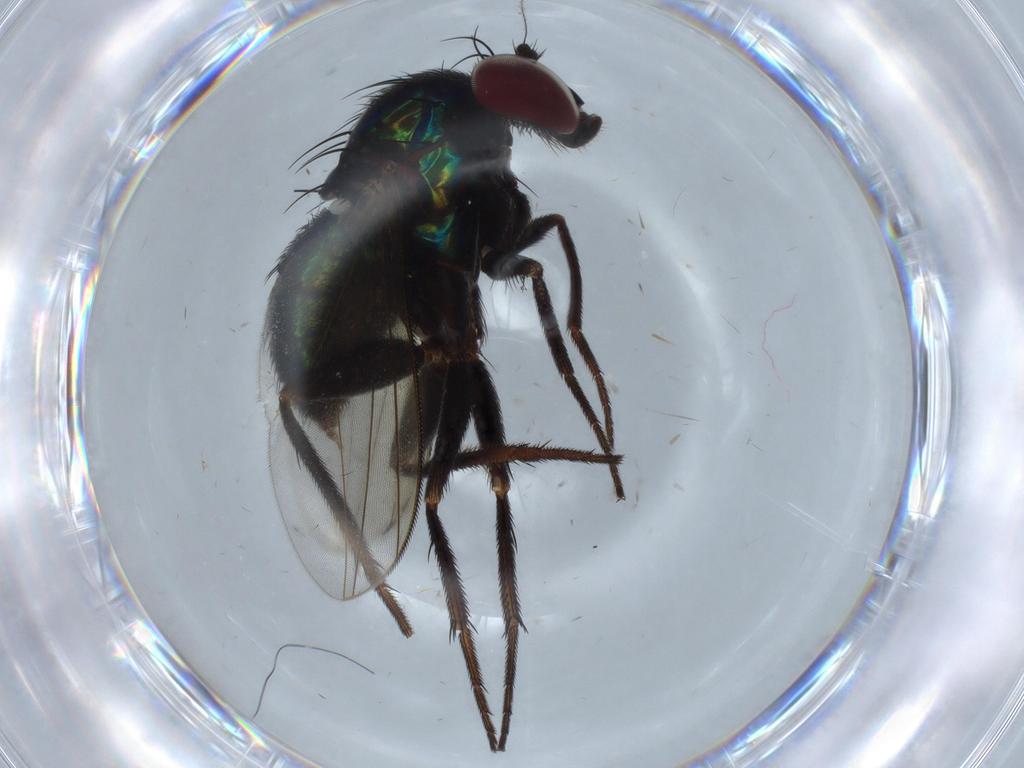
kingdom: Animalia
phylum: Arthropoda
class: Insecta
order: Diptera
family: Dolichopodidae
